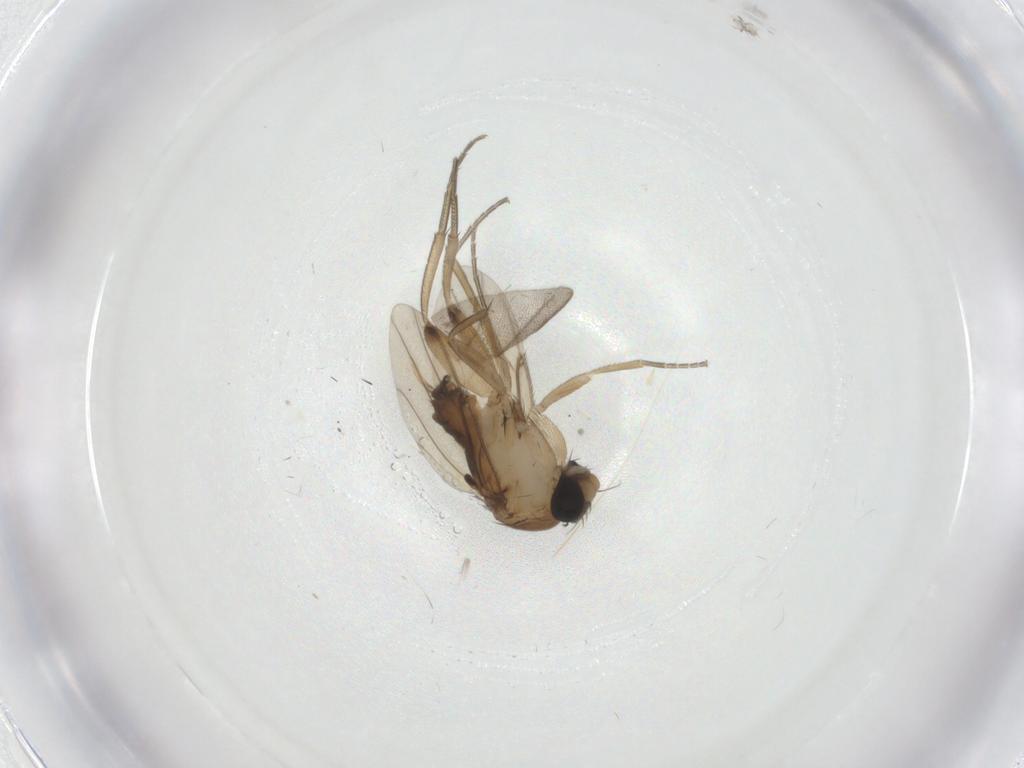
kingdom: Animalia
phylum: Arthropoda
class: Insecta
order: Diptera
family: Phoridae
